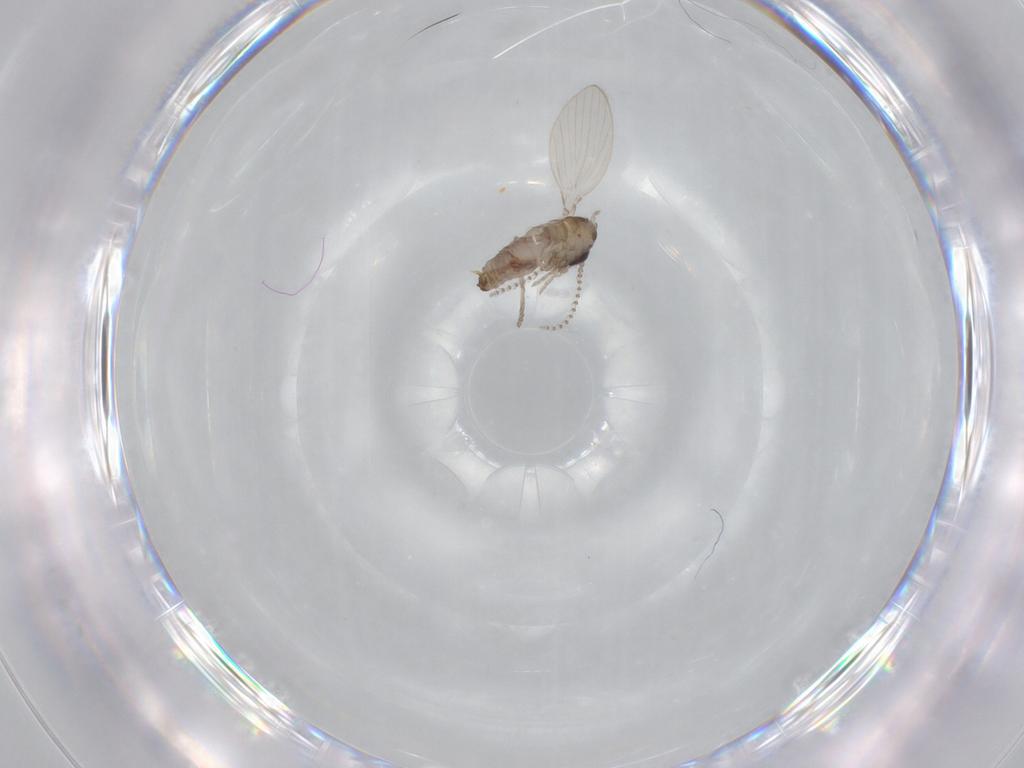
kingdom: Animalia
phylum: Arthropoda
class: Insecta
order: Diptera
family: Psychodidae
